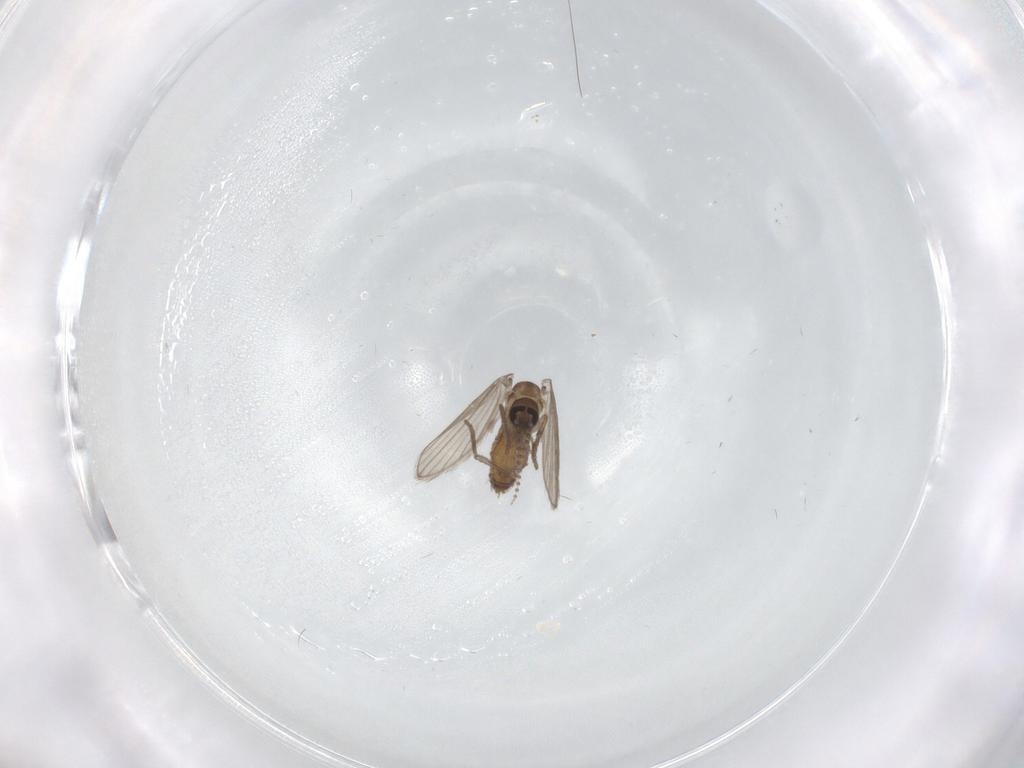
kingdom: Animalia
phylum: Arthropoda
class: Insecta
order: Diptera
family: Psychodidae
